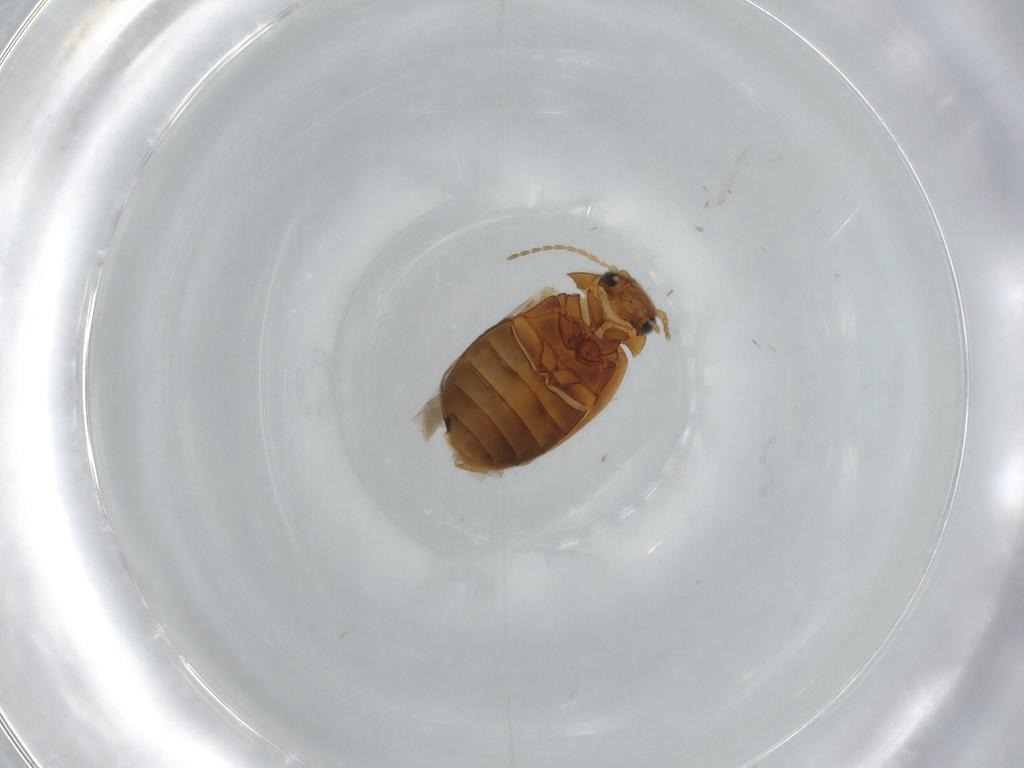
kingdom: Animalia
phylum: Arthropoda
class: Insecta
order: Coleoptera
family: Scirtidae
